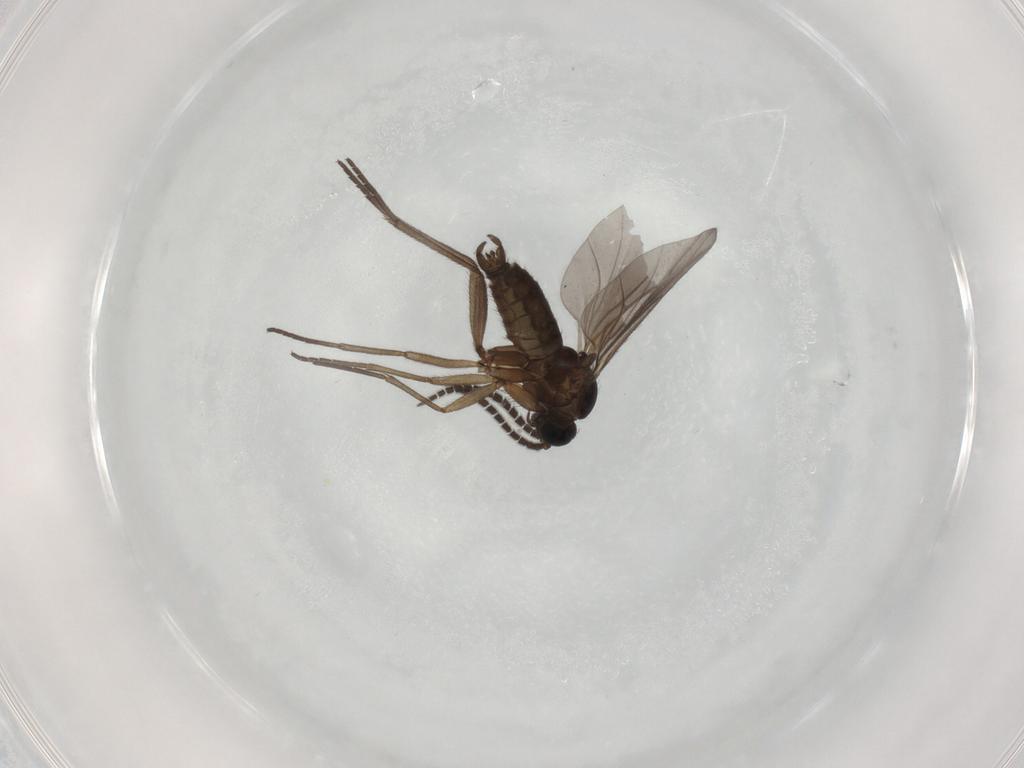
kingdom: Animalia
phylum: Arthropoda
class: Insecta
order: Diptera
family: Sciaridae
